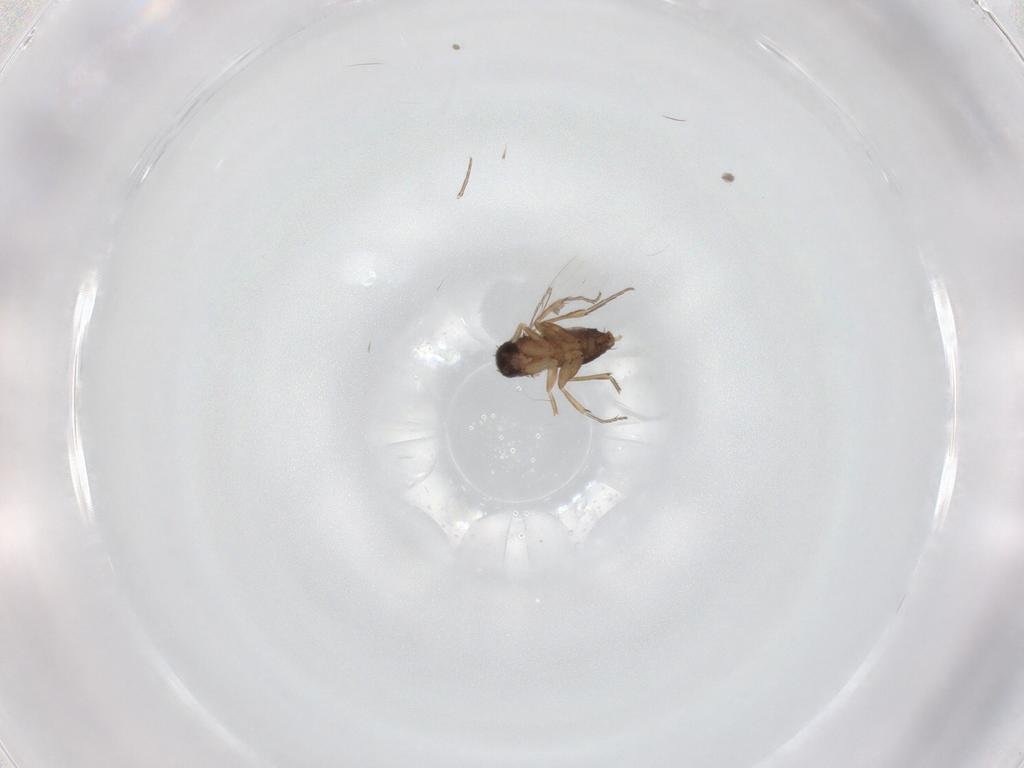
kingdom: Animalia
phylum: Arthropoda
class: Insecta
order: Diptera
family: Phoridae
